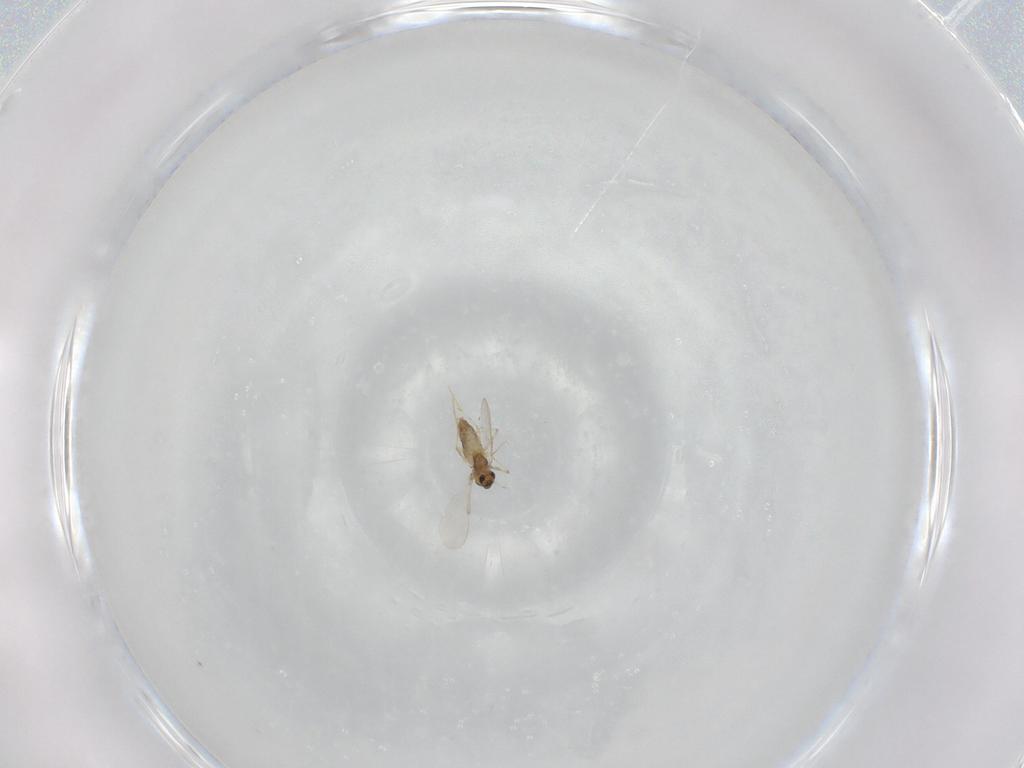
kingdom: Animalia
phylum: Arthropoda
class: Insecta
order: Diptera
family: Chironomidae
